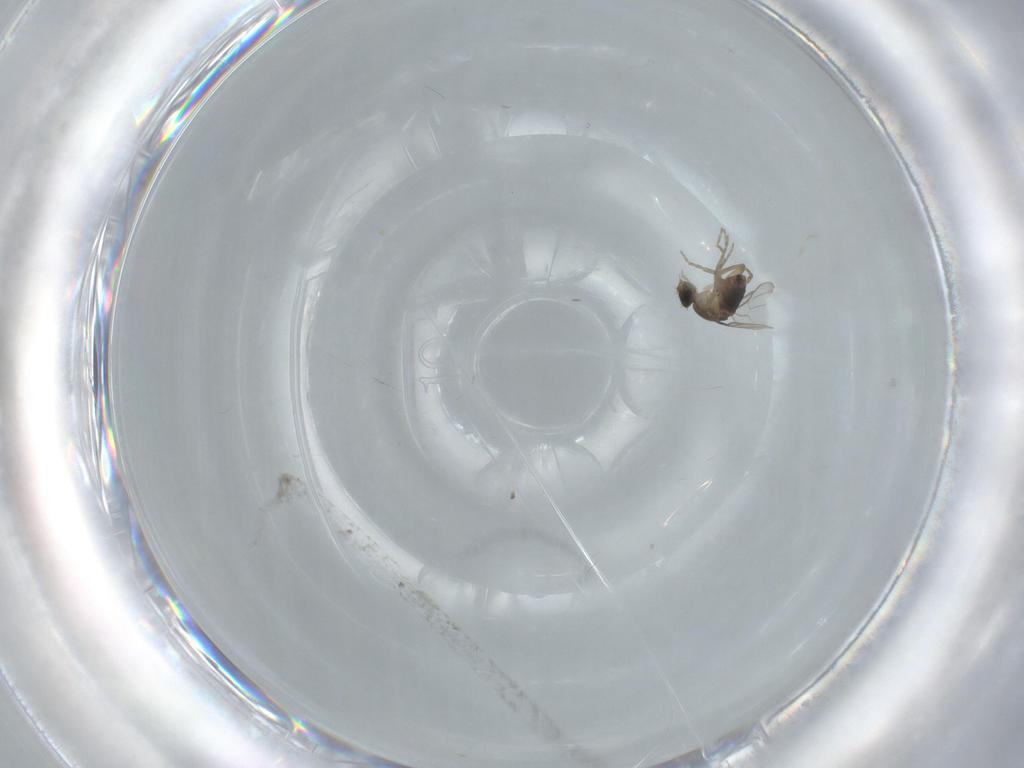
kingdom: Animalia
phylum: Arthropoda
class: Insecta
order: Diptera
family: Phoridae
